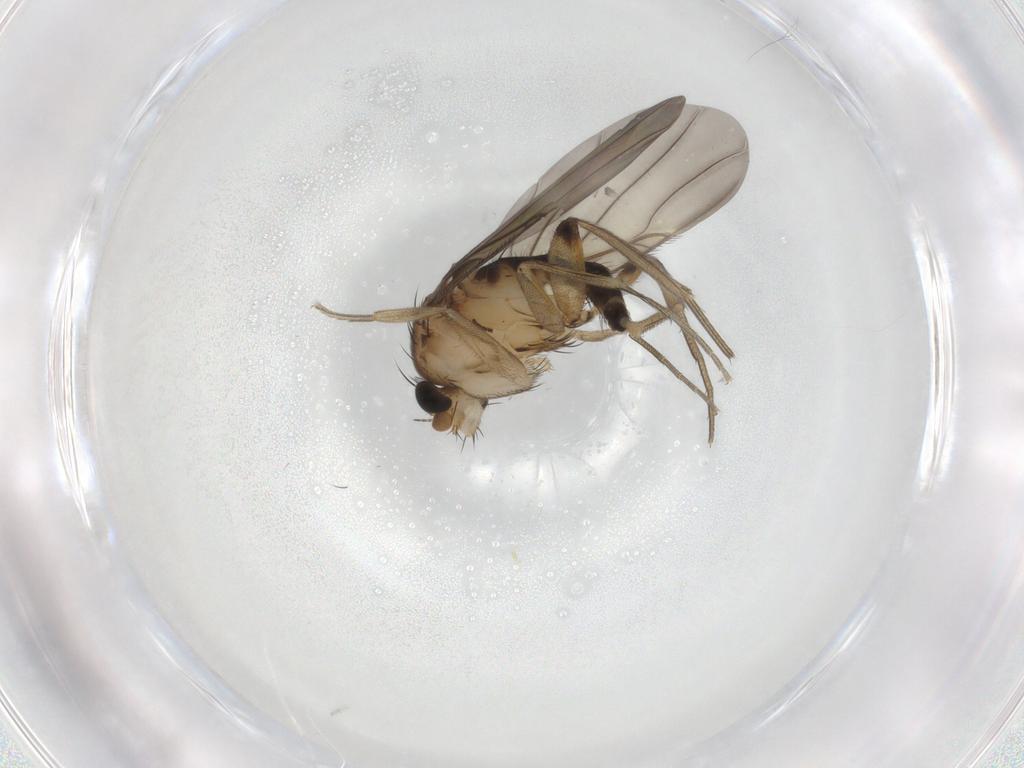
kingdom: Animalia
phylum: Arthropoda
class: Insecta
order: Diptera
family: Phoridae
